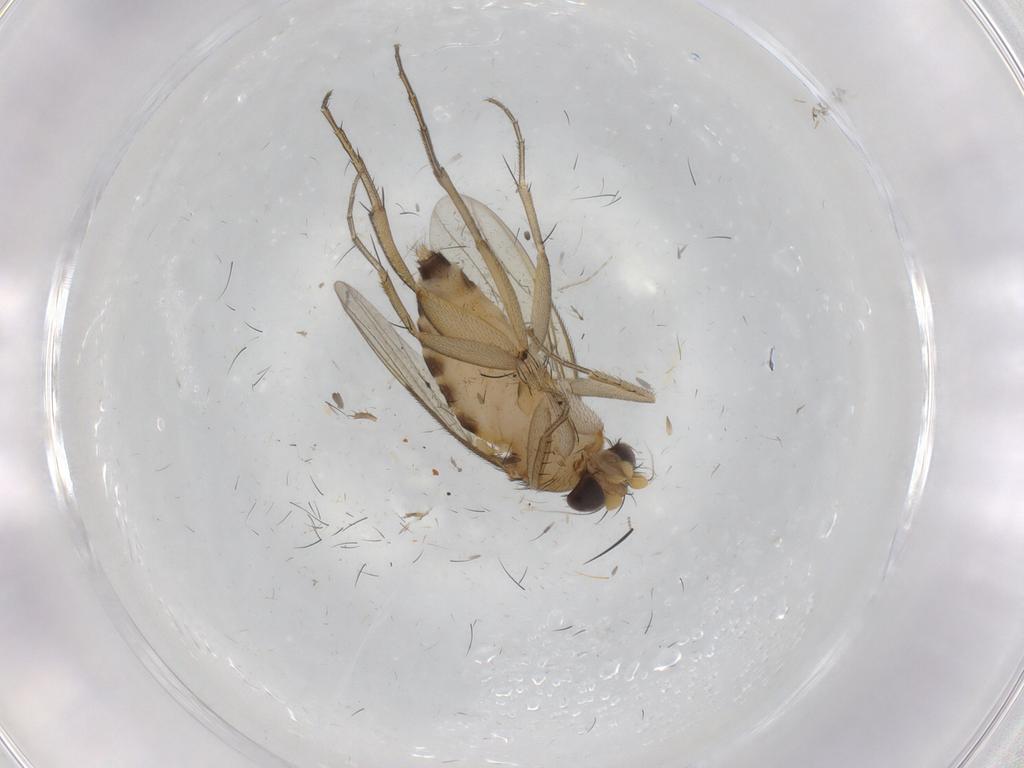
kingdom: Animalia
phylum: Arthropoda
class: Insecta
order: Diptera
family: Phoridae
